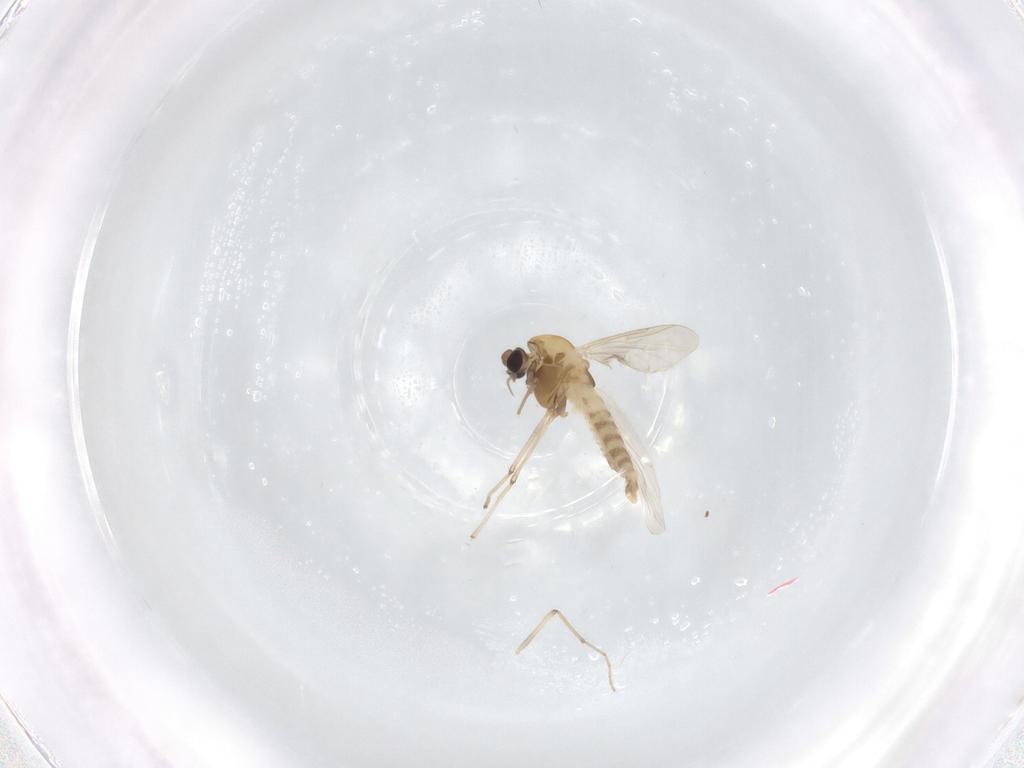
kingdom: Animalia
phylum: Arthropoda
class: Insecta
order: Diptera
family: Chironomidae
